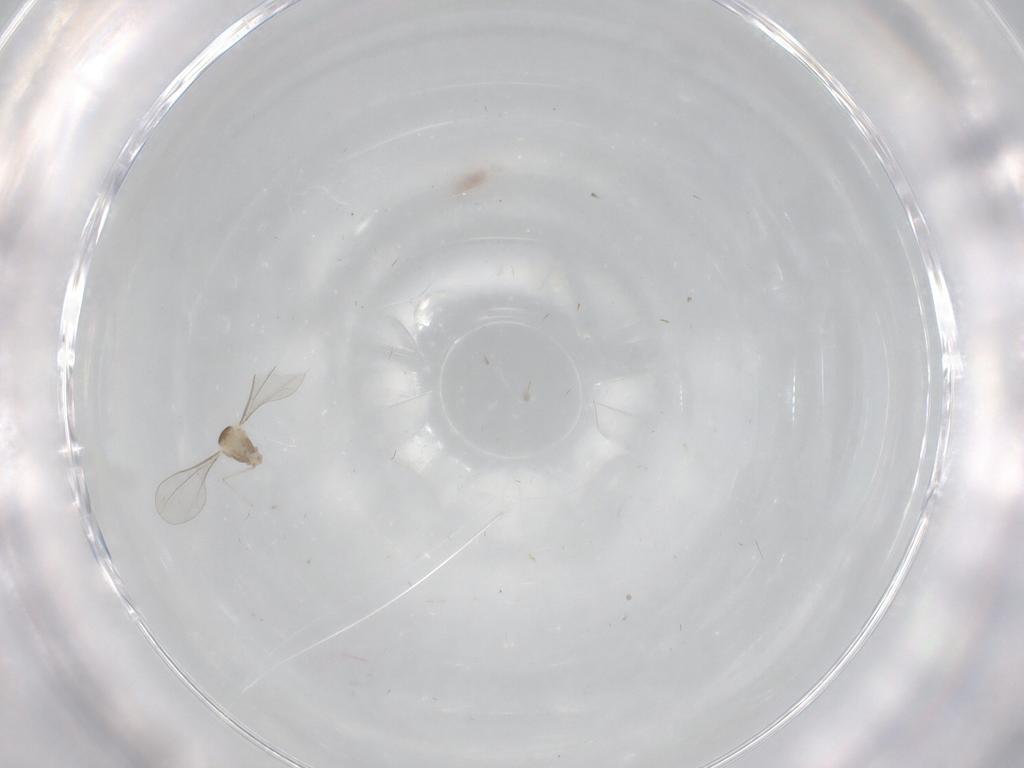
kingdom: Animalia
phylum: Arthropoda
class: Insecta
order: Diptera
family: Cecidomyiidae
